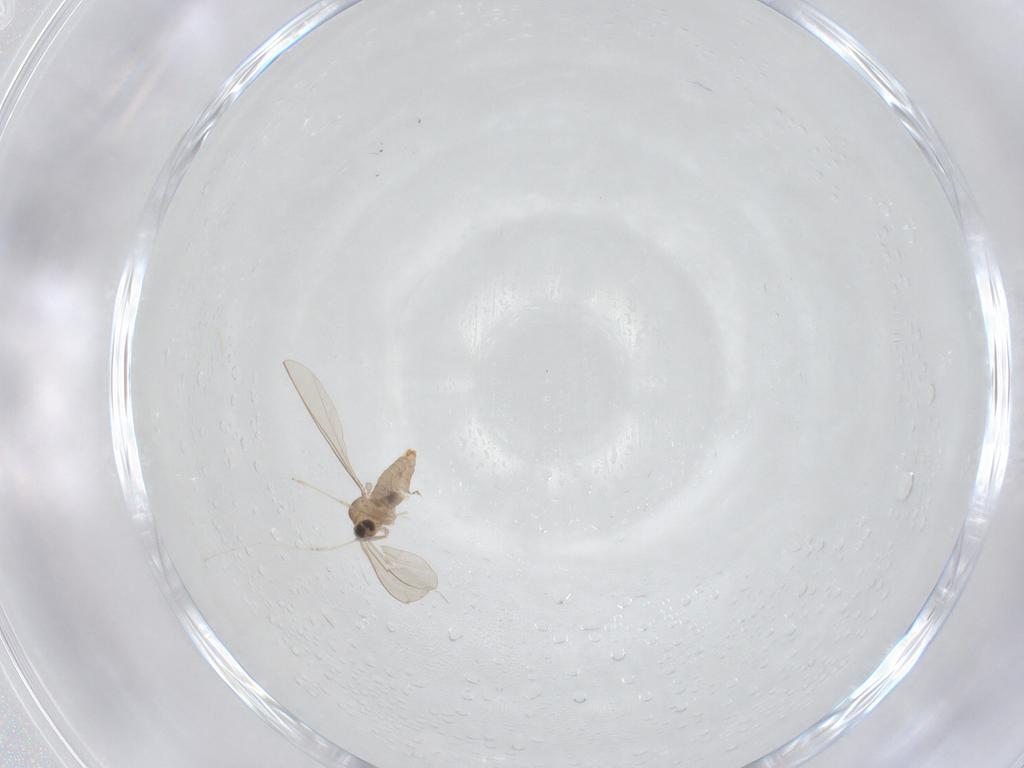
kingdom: Animalia
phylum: Arthropoda
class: Insecta
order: Diptera
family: Cecidomyiidae
